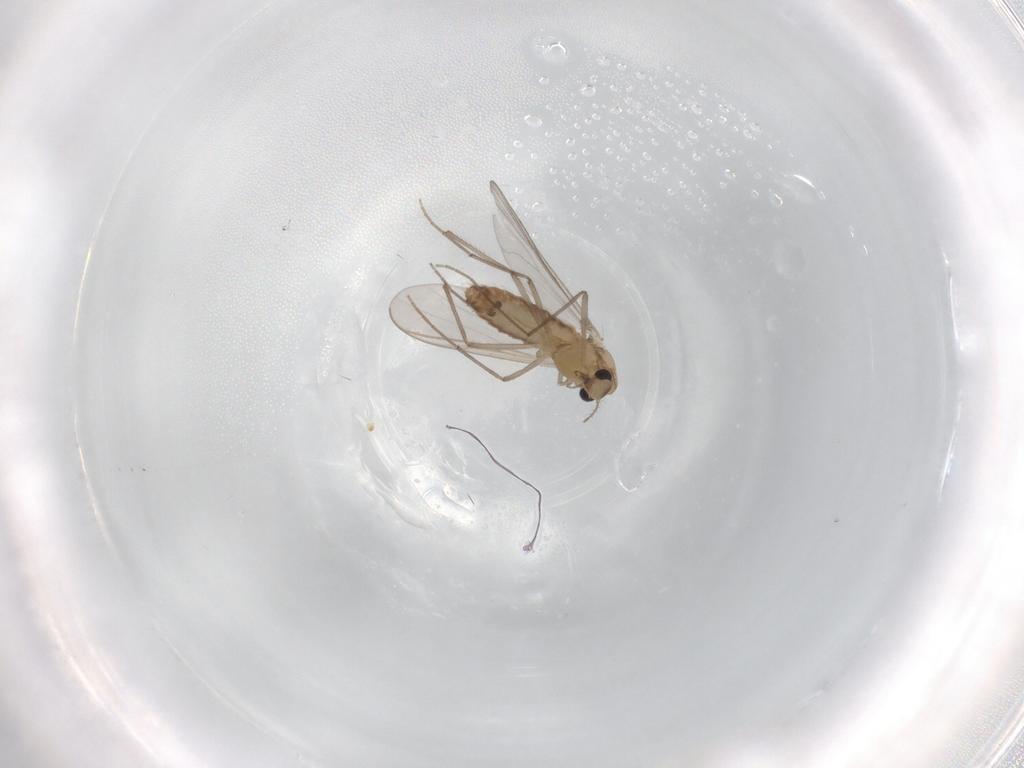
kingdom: Animalia
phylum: Arthropoda
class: Insecta
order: Diptera
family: Chironomidae
